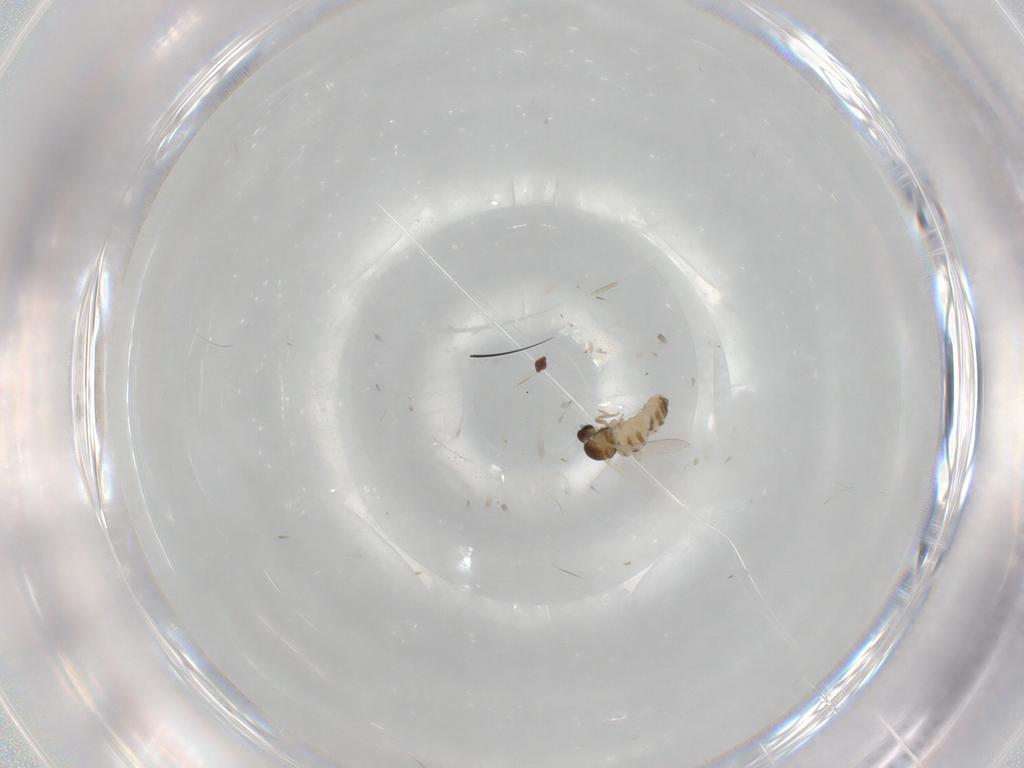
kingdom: Animalia
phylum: Arthropoda
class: Insecta
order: Diptera
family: Cecidomyiidae
